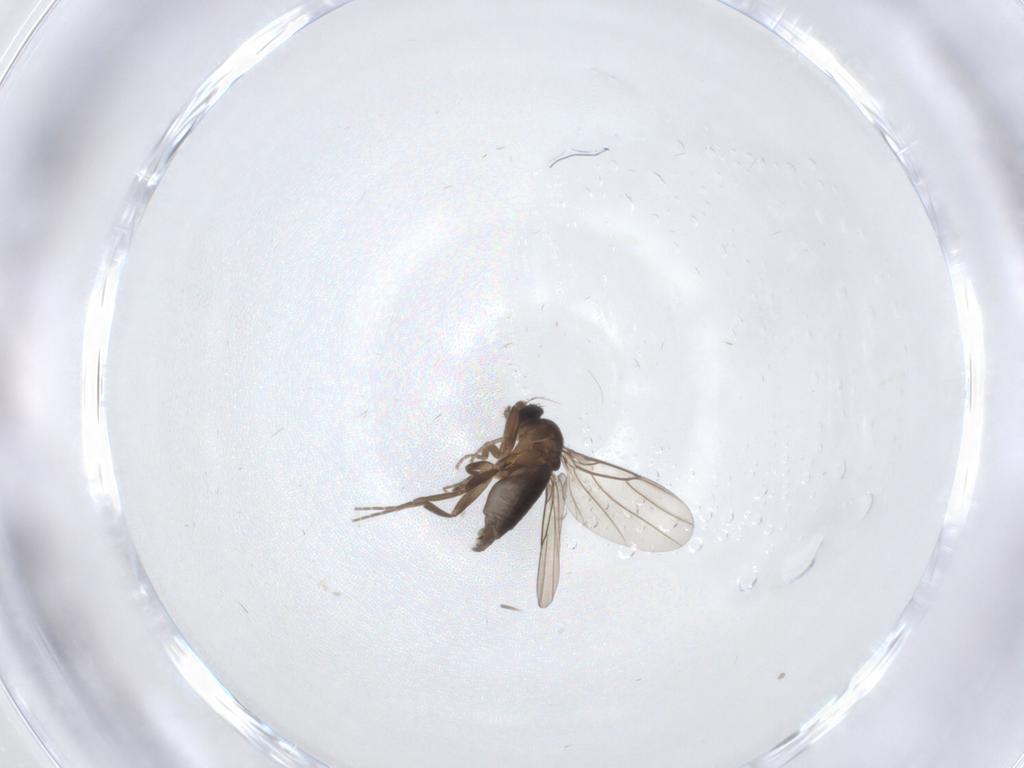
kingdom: Animalia
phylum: Arthropoda
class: Insecta
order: Diptera
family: Phoridae
